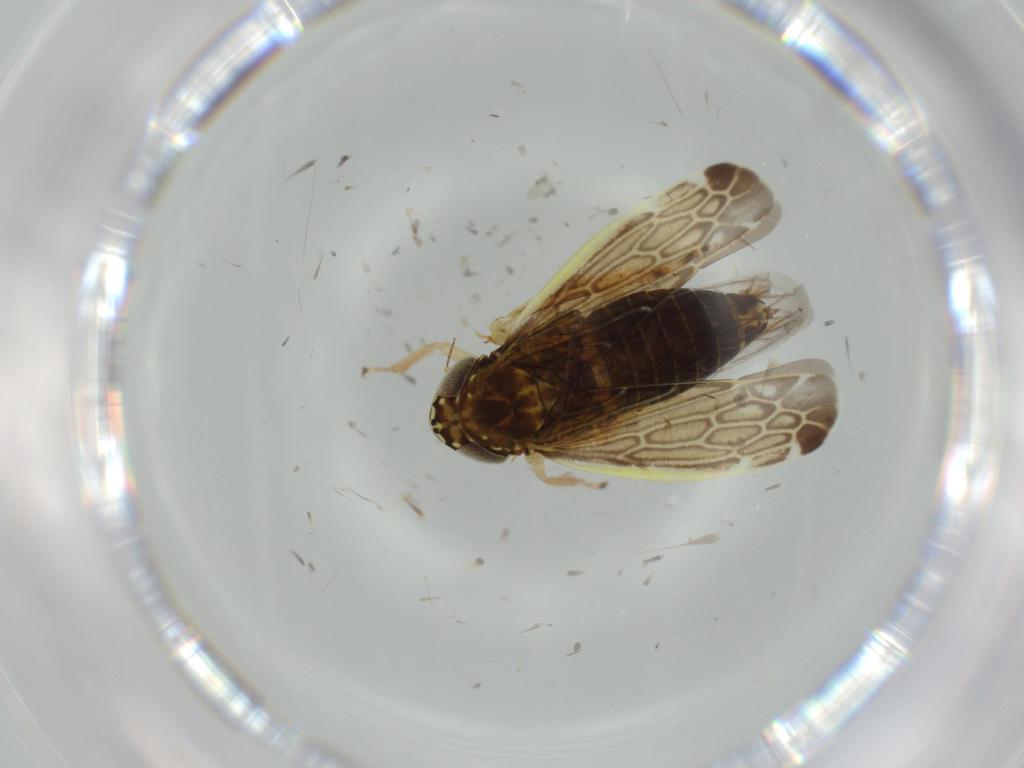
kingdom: Animalia
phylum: Arthropoda
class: Insecta
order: Hemiptera
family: Cicadellidae
